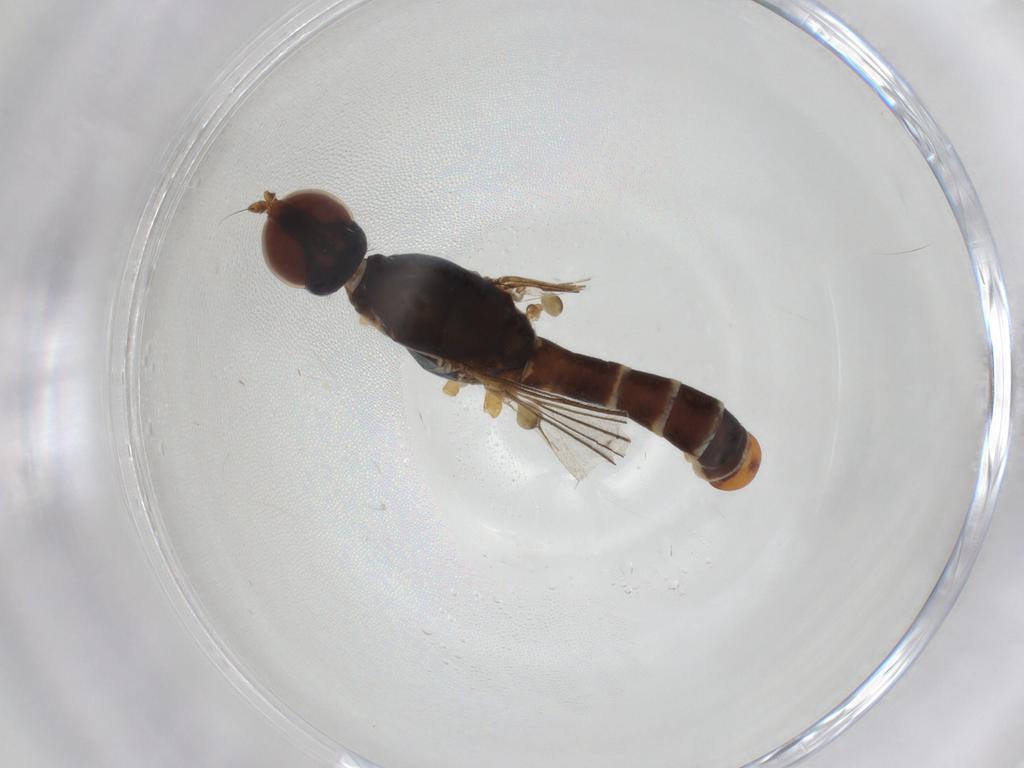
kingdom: Animalia
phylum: Arthropoda
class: Insecta
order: Diptera
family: Micropezidae
